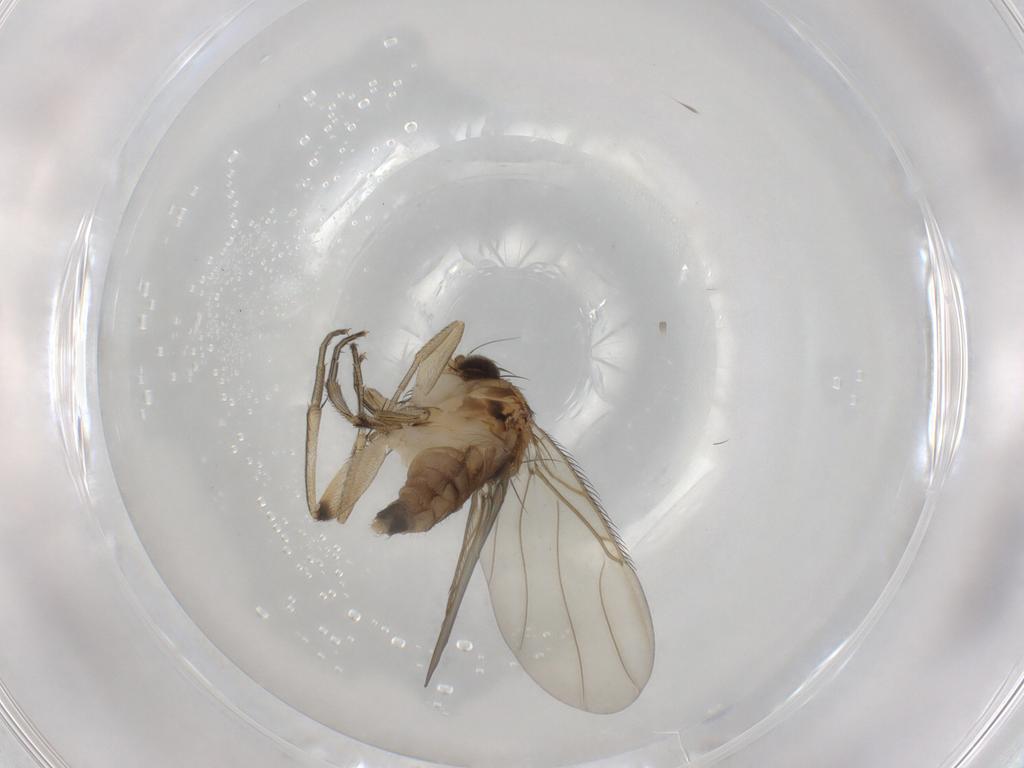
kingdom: Animalia
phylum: Arthropoda
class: Insecta
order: Diptera
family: Phoridae
